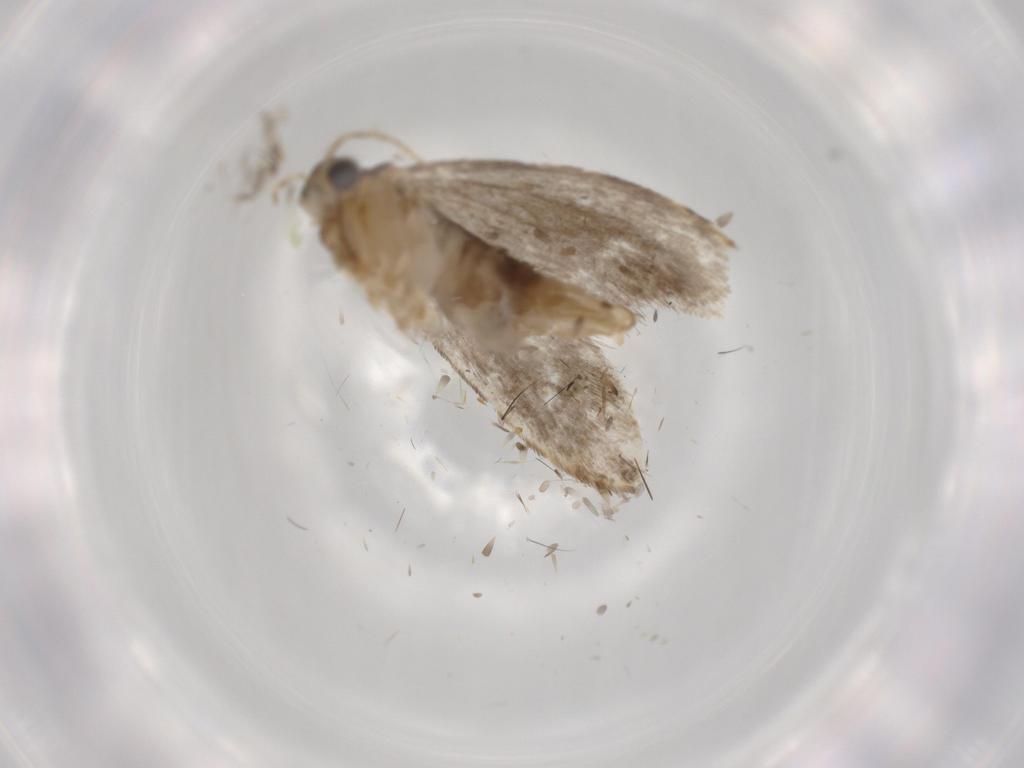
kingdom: Animalia
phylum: Arthropoda
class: Insecta
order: Lepidoptera
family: Tineidae
